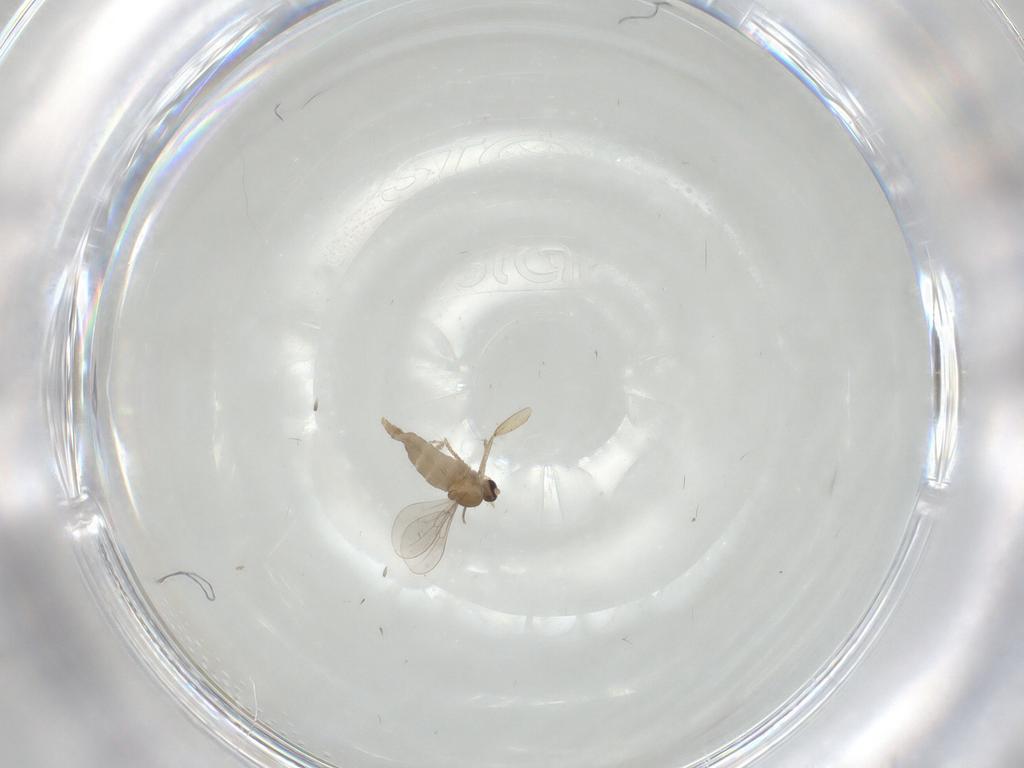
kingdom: Animalia
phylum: Arthropoda
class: Insecta
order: Diptera
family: Cecidomyiidae
